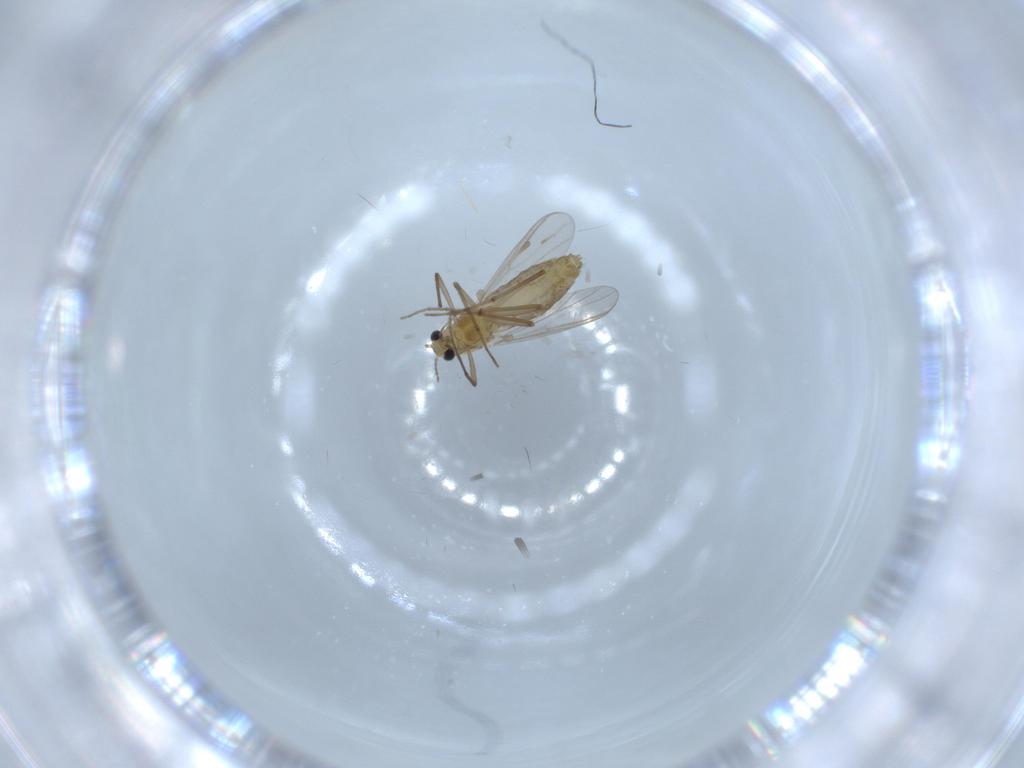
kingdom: Animalia
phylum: Arthropoda
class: Insecta
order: Diptera
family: Chironomidae
